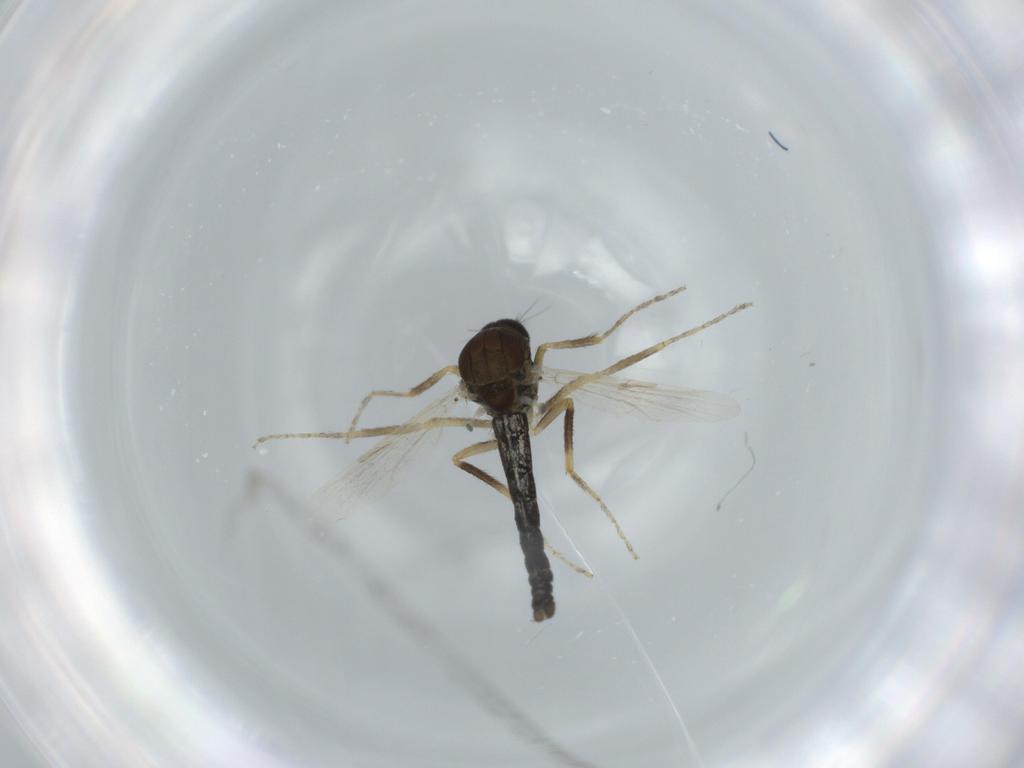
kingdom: Animalia
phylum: Arthropoda
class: Insecta
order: Diptera
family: Ceratopogonidae
